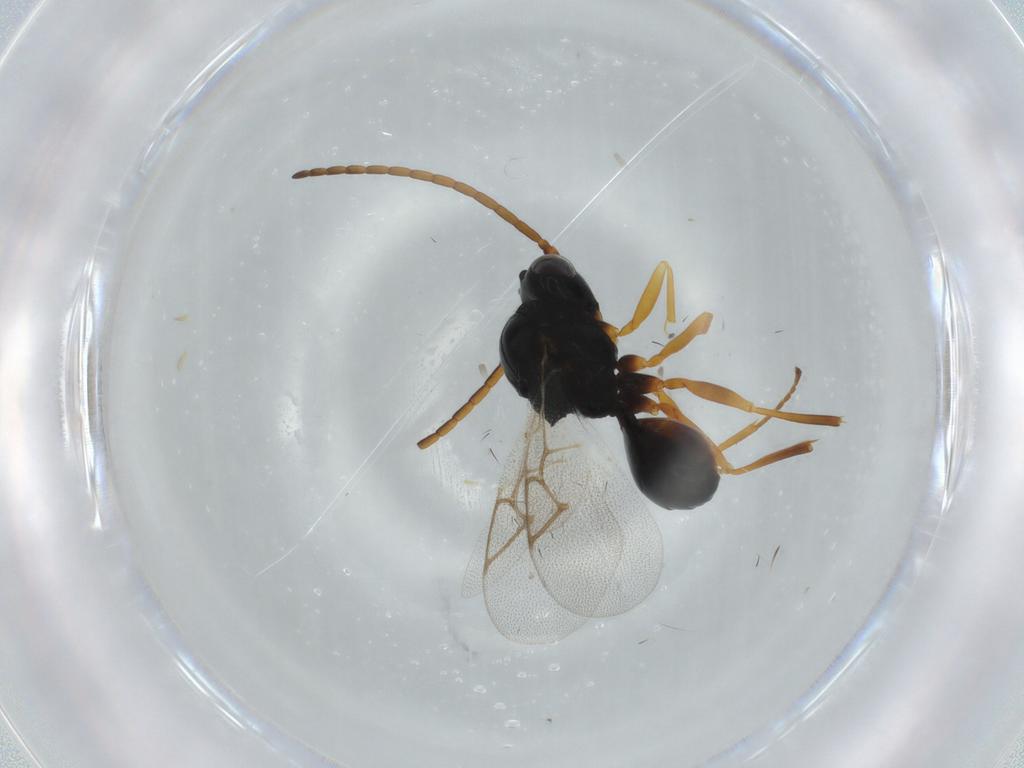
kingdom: Animalia
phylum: Arthropoda
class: Insecta
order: Hymenoptera
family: Figitidae
